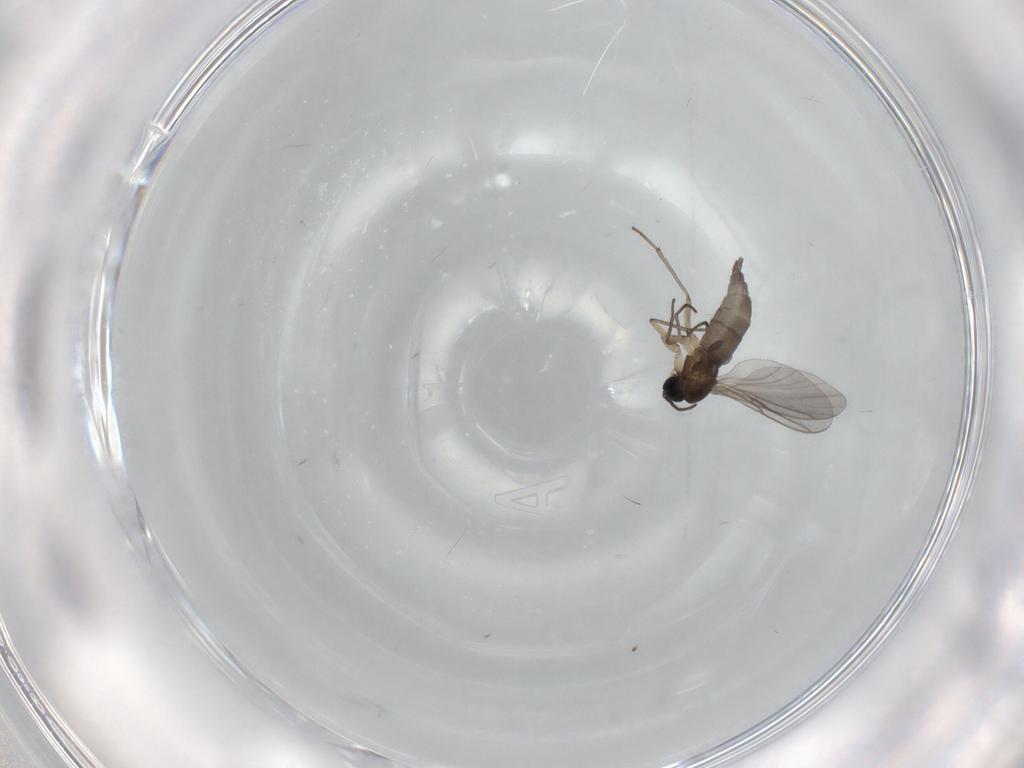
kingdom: Animalia
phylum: Arthropoda
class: Insecta
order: Diptera
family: Sciaridae
